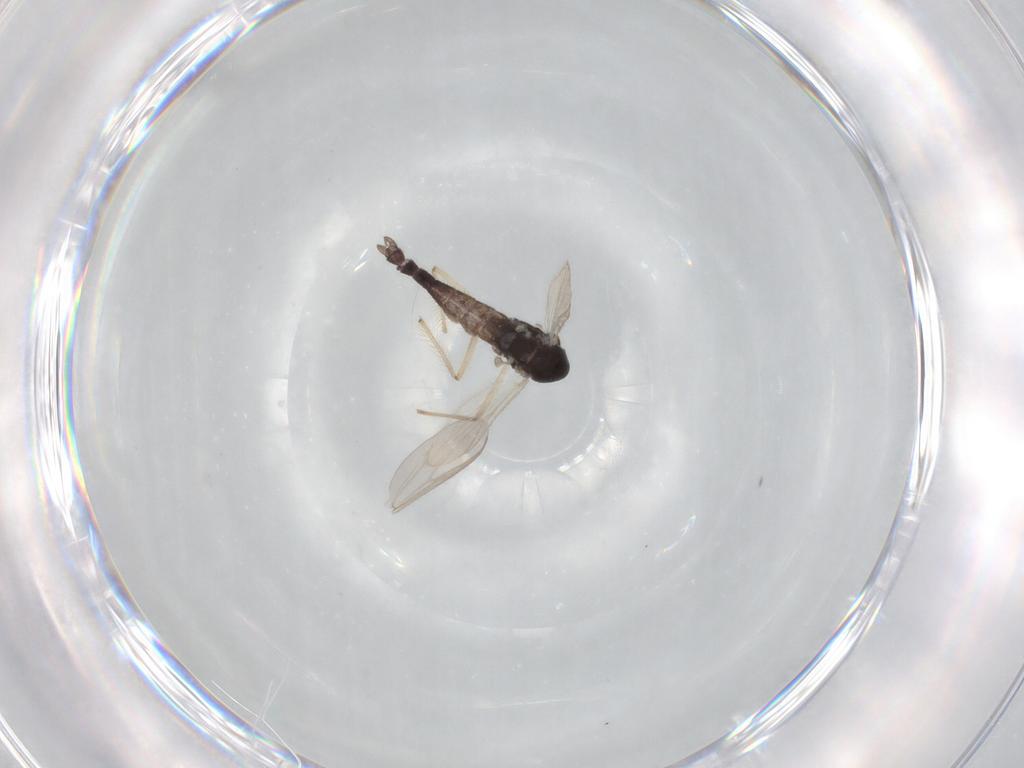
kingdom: Animalia
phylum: Arthropoda
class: Insecta
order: Diptera
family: Chironomidae
